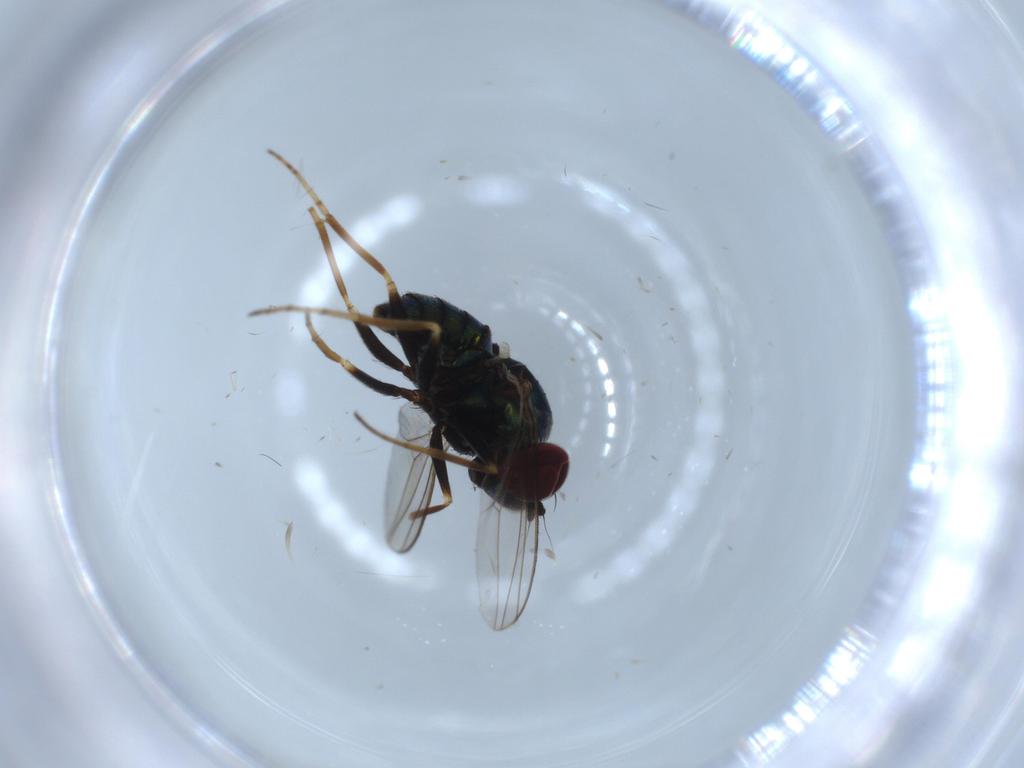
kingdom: Animalia
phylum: Arthropoda
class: Insecta
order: Diptera
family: Dolichopodidae
